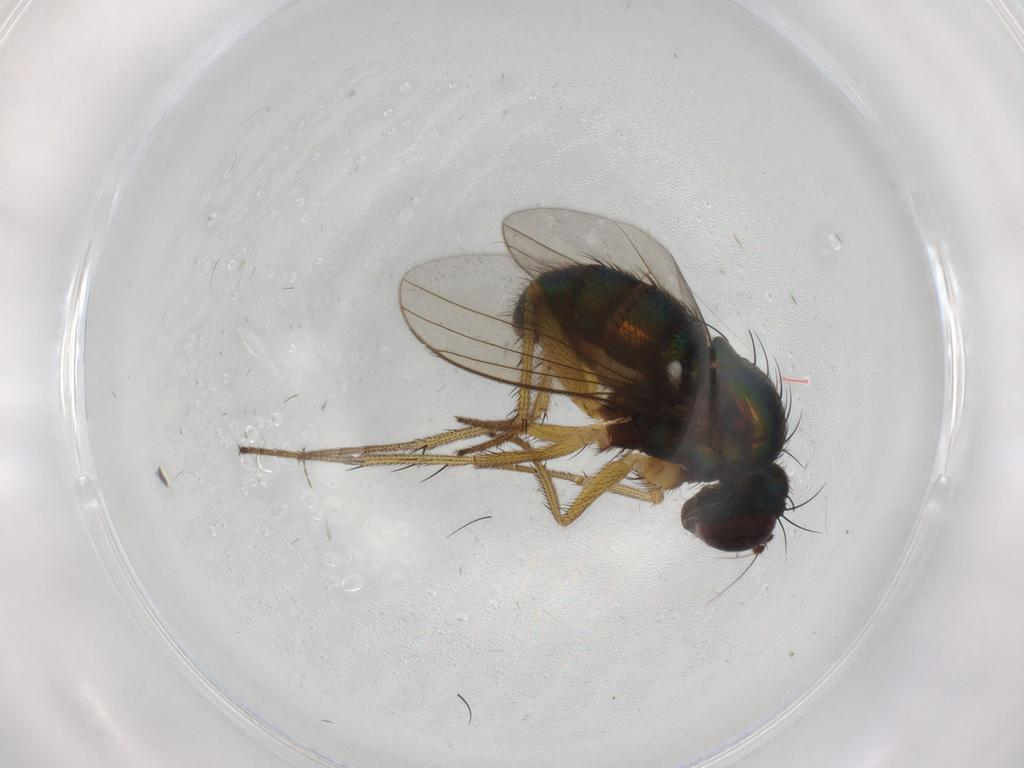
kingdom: Animalia
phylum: Arthropoda
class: Insecta
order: Diptera
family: Dolichopodidae
